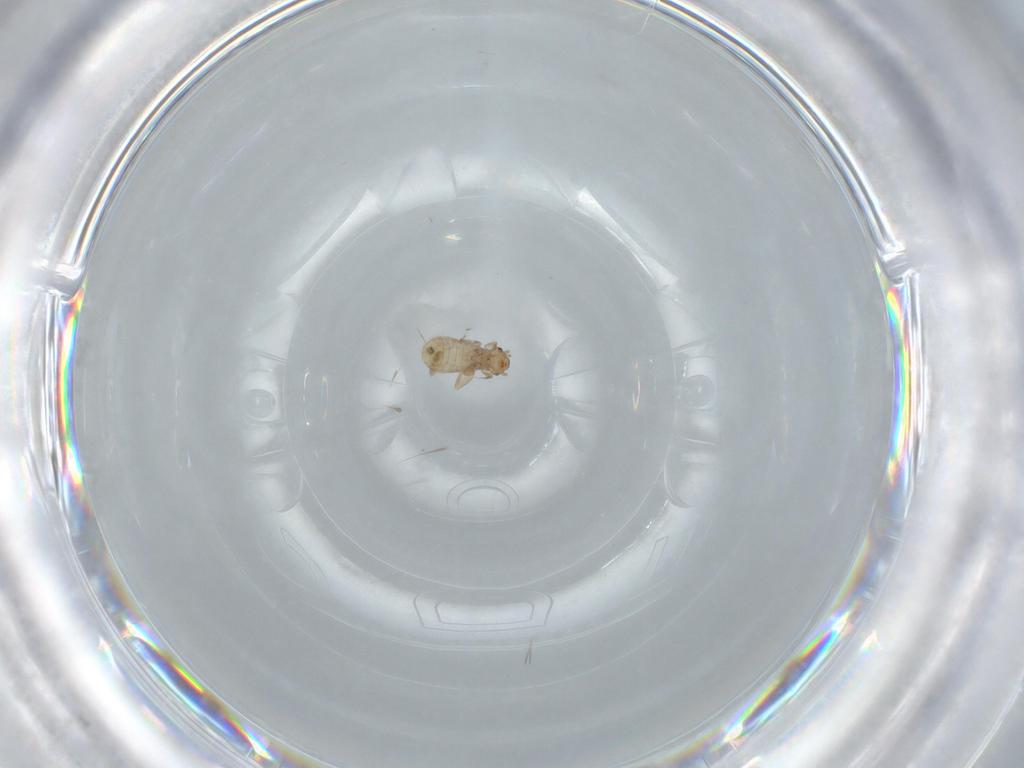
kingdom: Animalia
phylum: Arthropoda
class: Insecta
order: Psocodea
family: Liposcelididae
